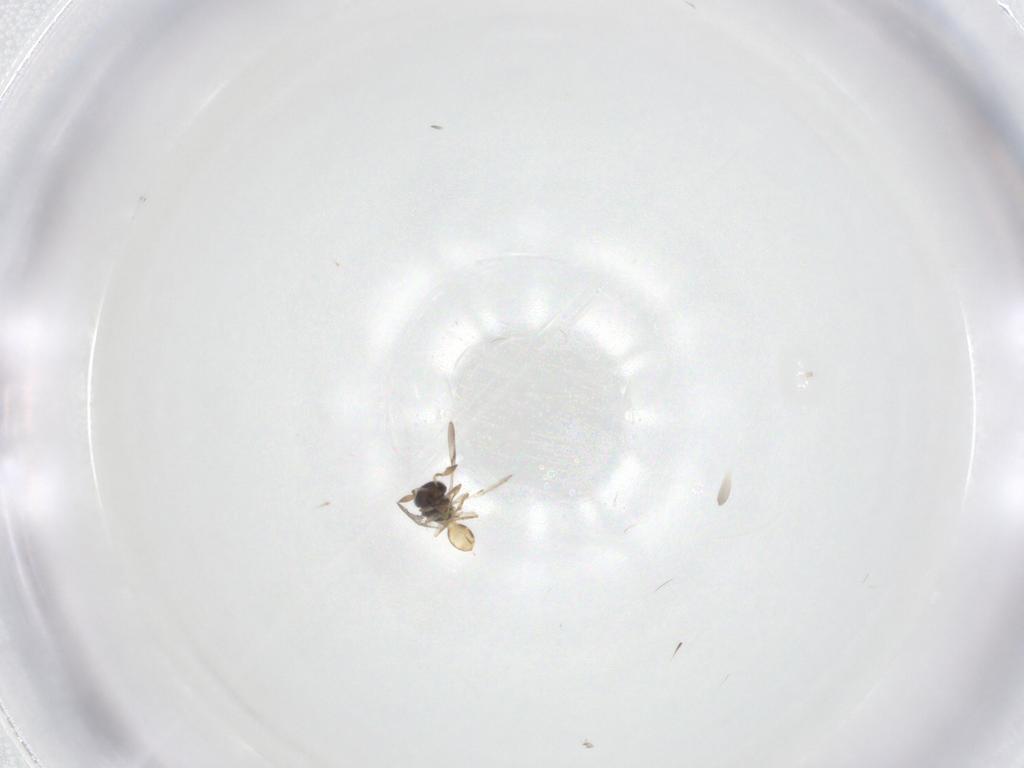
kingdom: Animalia
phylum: Arthropoda
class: Insecta
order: Hymenoptera
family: Scelionidae
